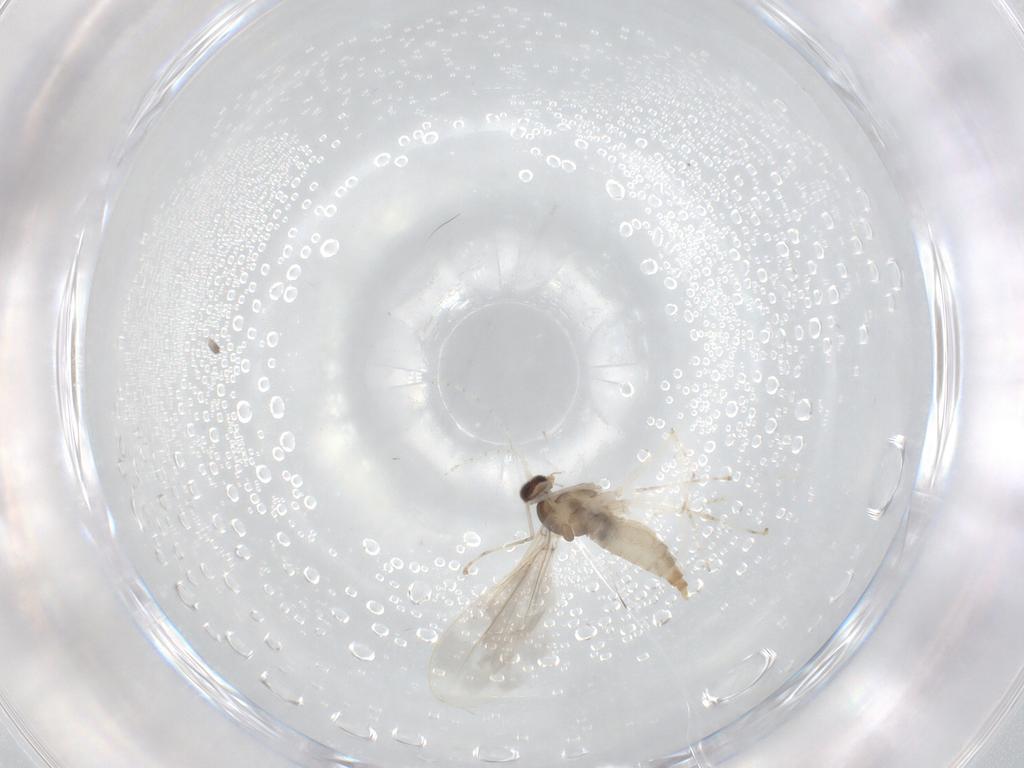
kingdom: Animalia
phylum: Arthropoda
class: Insecta
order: Diptera
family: Cecidomyiidae
